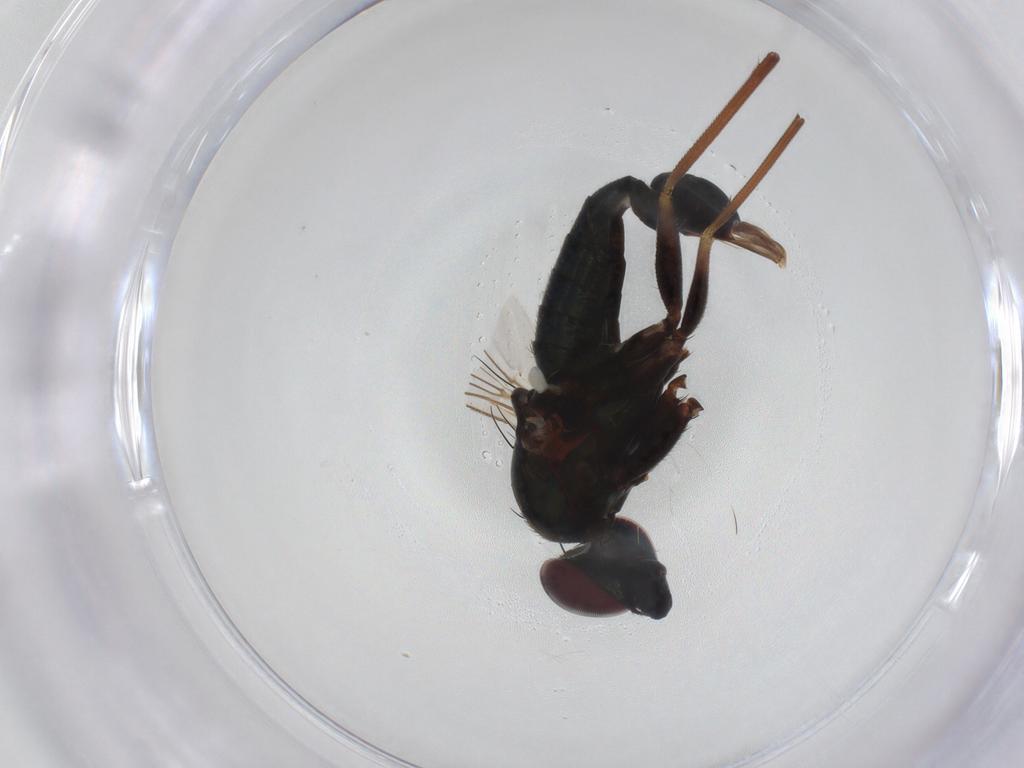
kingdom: Animalia
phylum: Arthropoda
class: Insecta
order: Diptera
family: Dolichopodidae
